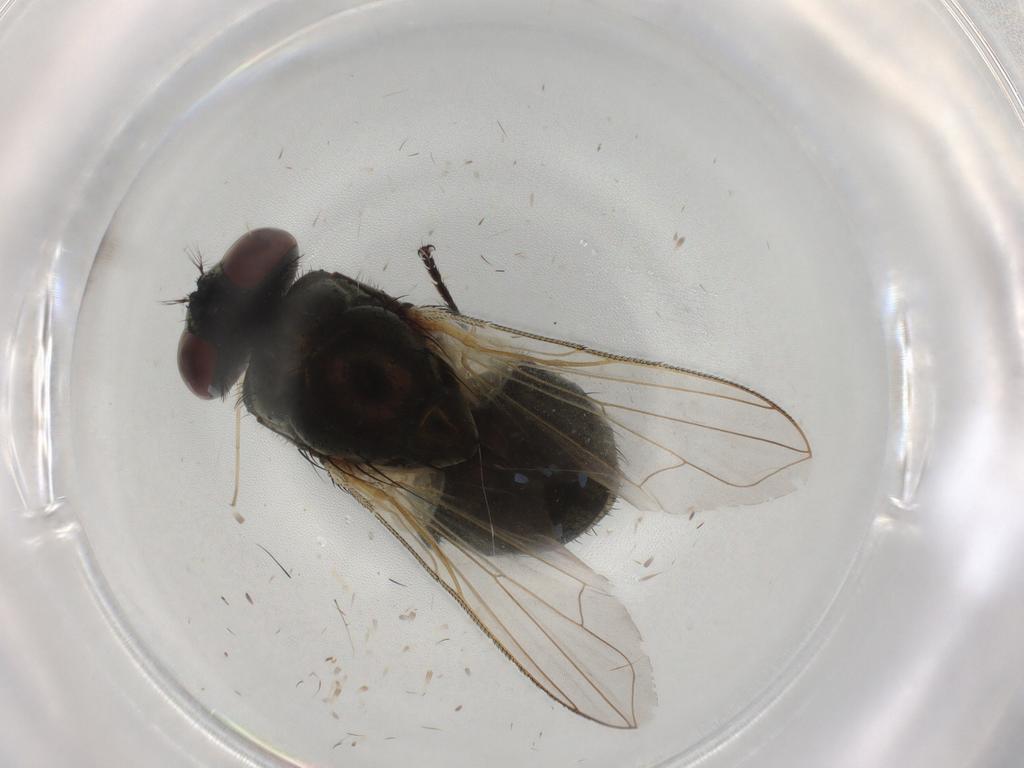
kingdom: Animalia
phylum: Arthropoda
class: Insecta
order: Diptera
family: Muscidae
